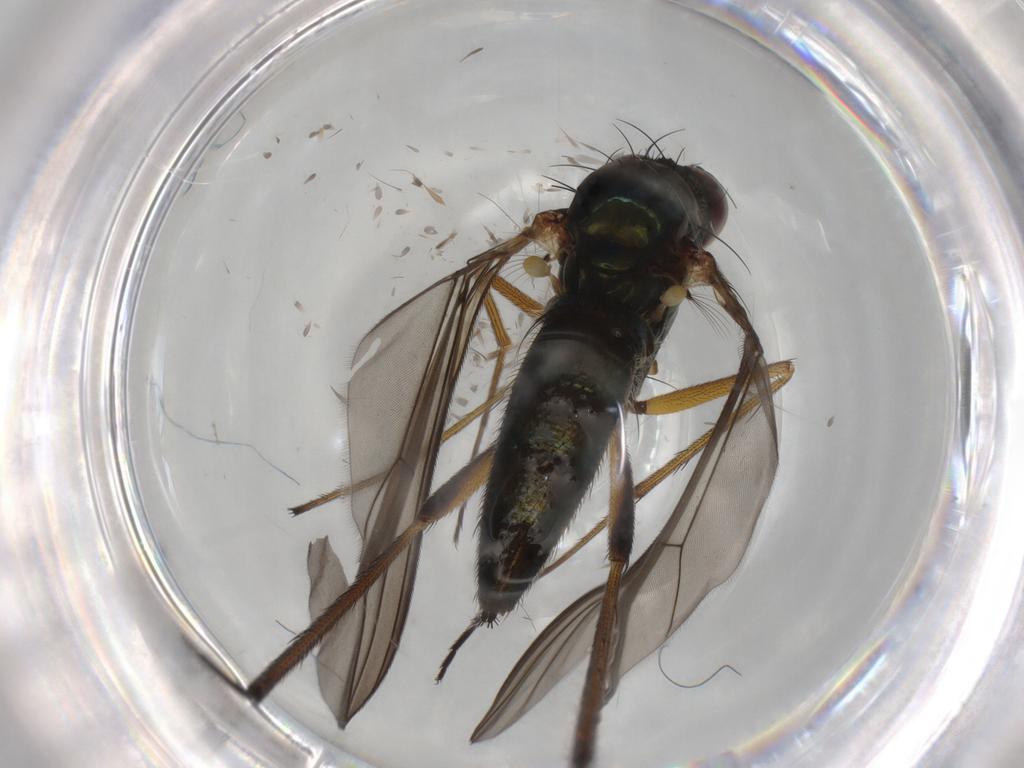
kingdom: Animalia
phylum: Arthropoda
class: Insecta
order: Diptera
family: Dolichopodidae
